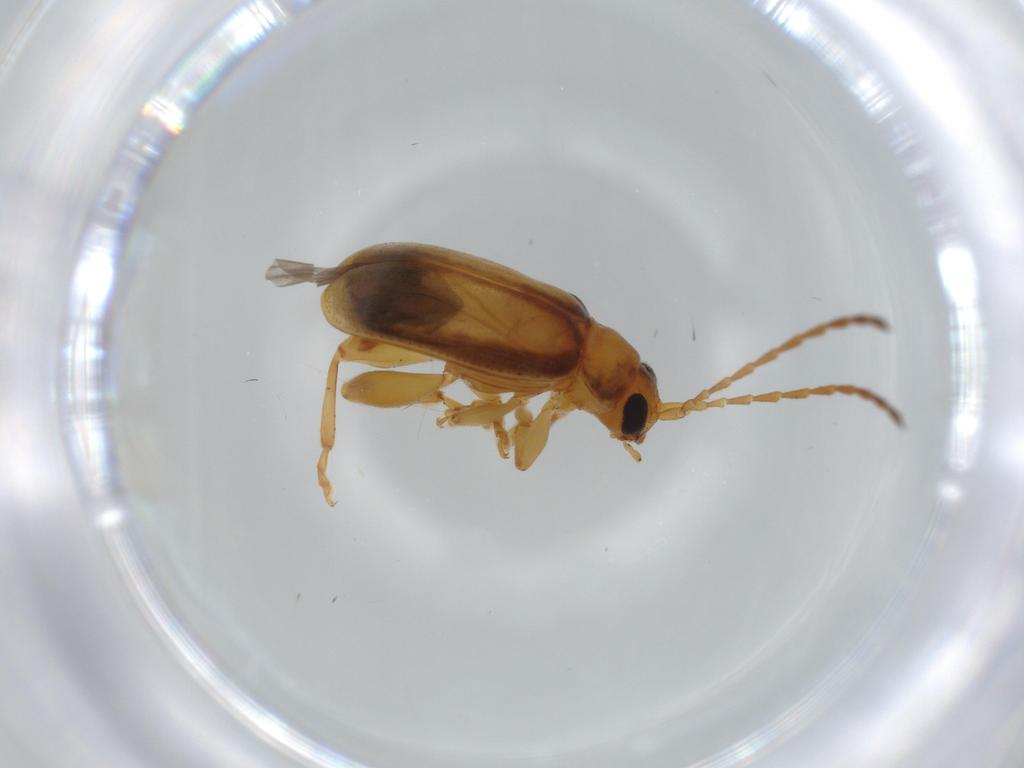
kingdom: Animalia
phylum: Arthropoda
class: Insecta
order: Coleoptera
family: Chrysomelidae
